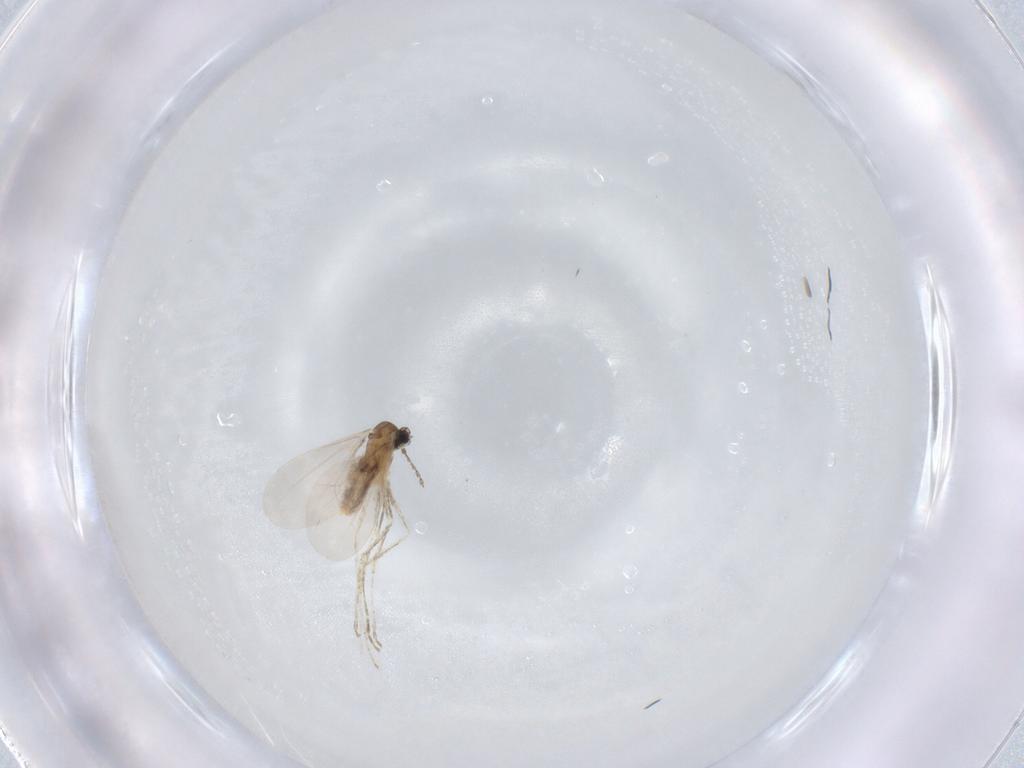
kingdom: Animalia
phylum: Arthropoda
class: Insecta
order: Diptera
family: Cecidomyiidae
